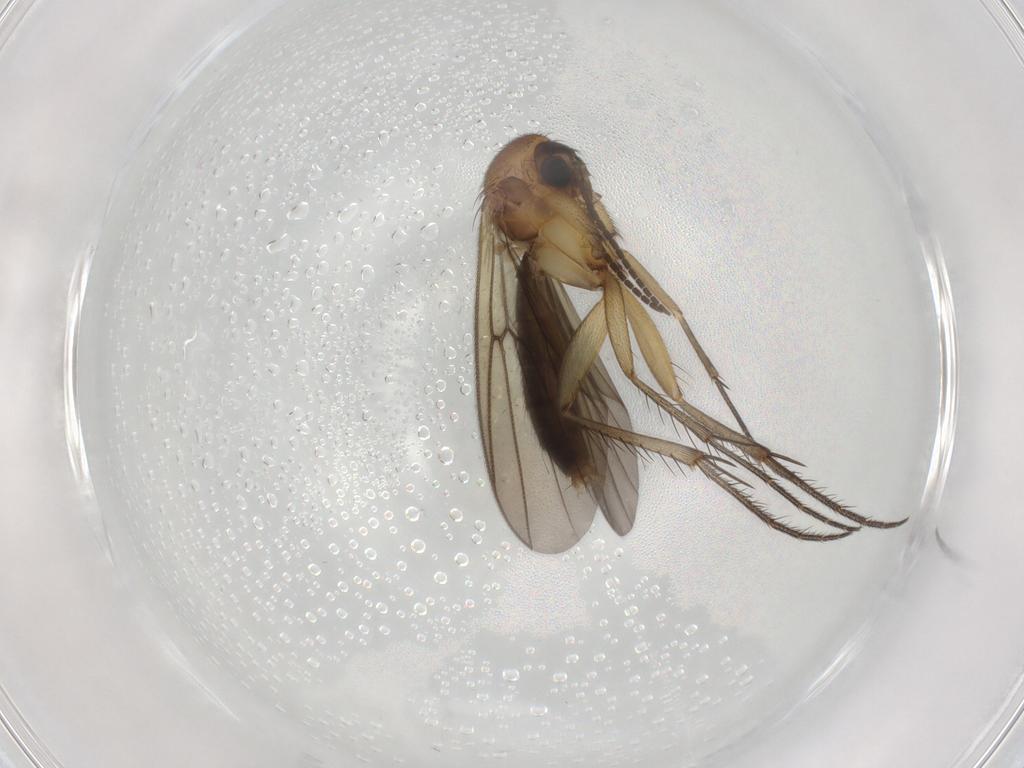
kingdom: Animalia
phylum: Arthropoda
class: Insecta
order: Diptera
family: Mycetophilidae
